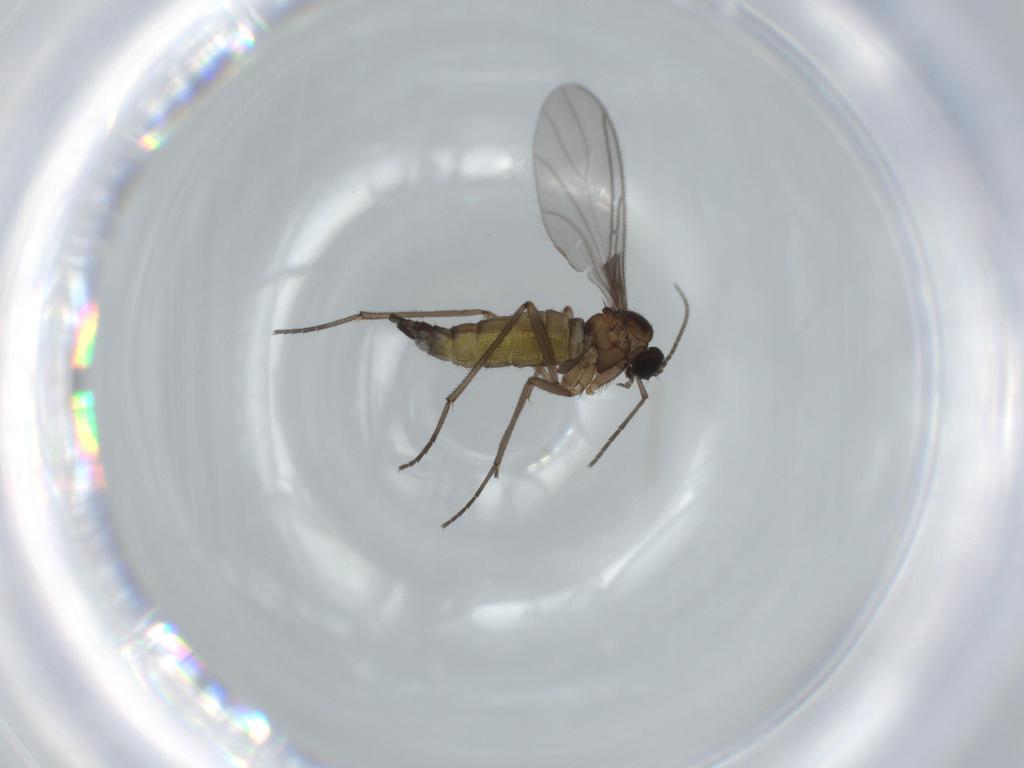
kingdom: Animalia
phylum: Arthropoda
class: Insecta
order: Diptera
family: Sciaridae
